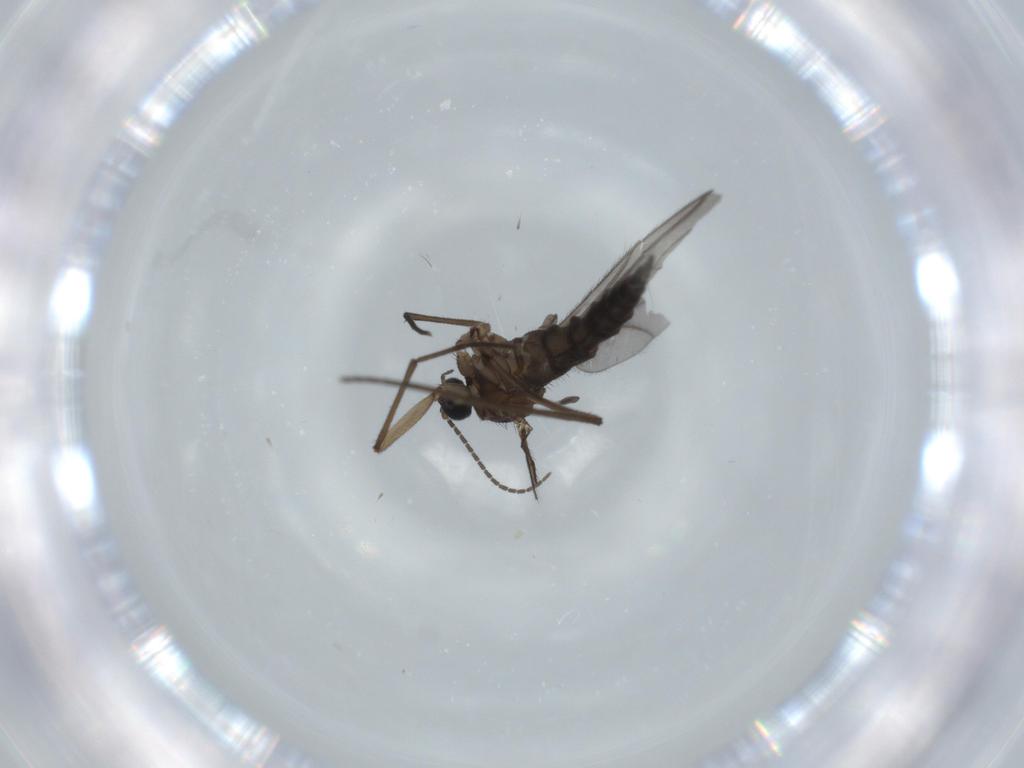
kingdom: Animalia
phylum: Arthropoda
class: Insecta
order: Diptera
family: Sciaridae
